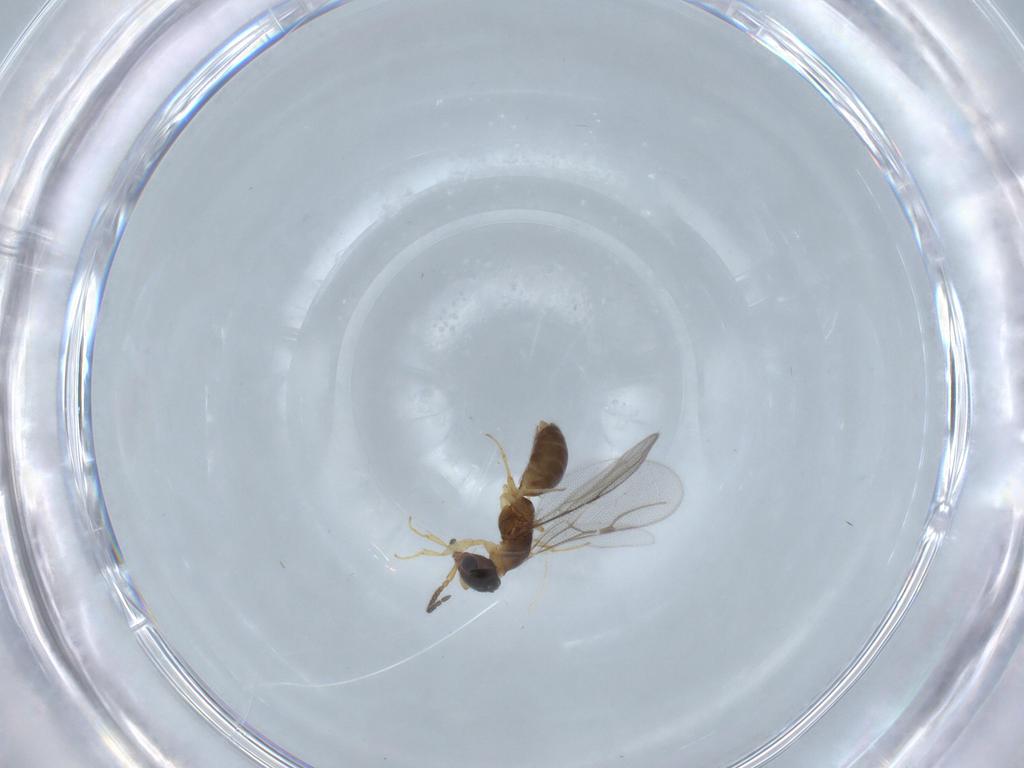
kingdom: Animalia
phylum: Arthropoda
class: Insecta
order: Hymenoptera
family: Bethylidae
